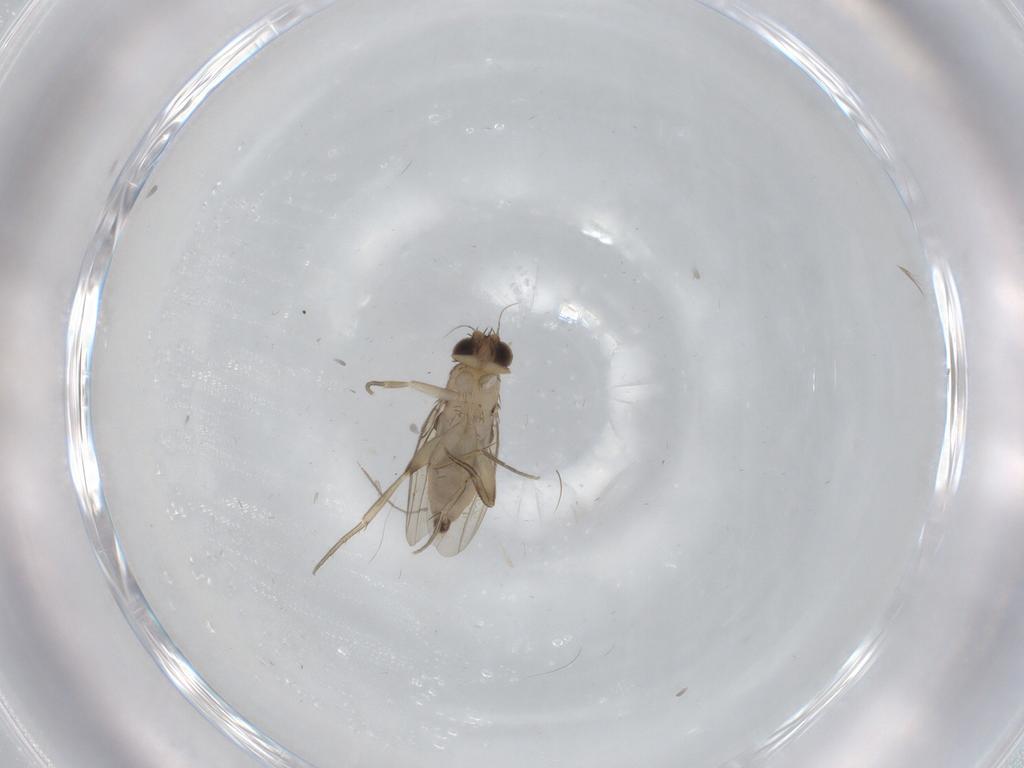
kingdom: Animalia
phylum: Arthropoda
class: Insecta
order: Diptera
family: Phoridae
